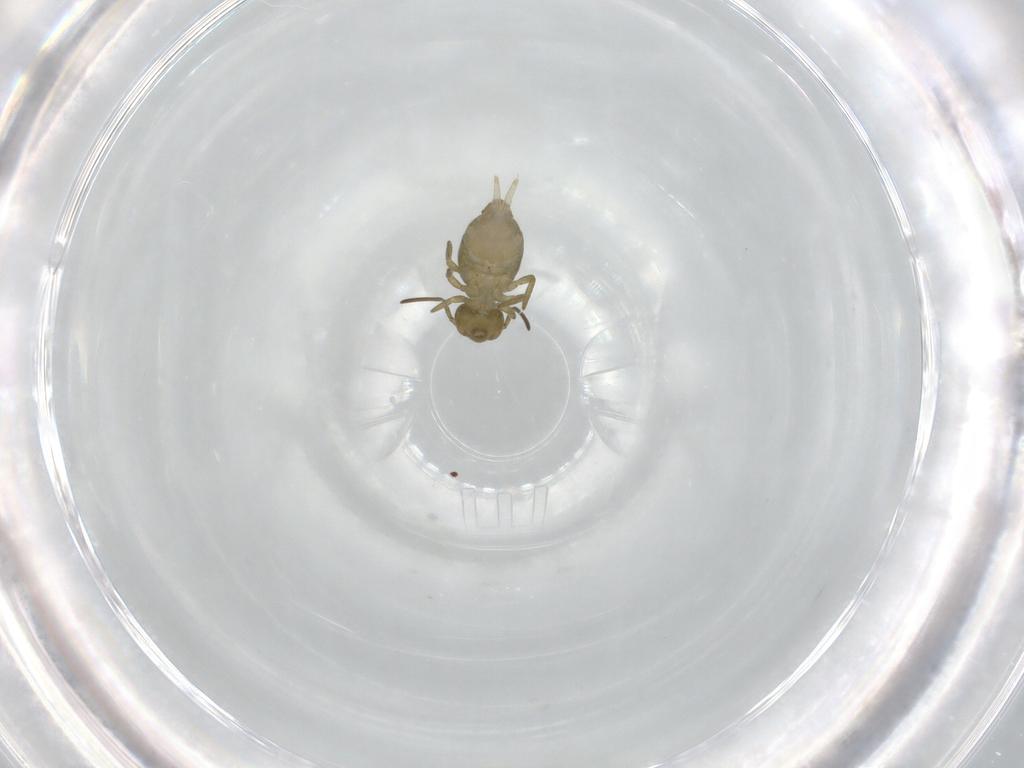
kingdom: Animalia
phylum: Arthropoda
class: Collembola
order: Symphypleona
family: Sminthuridae
